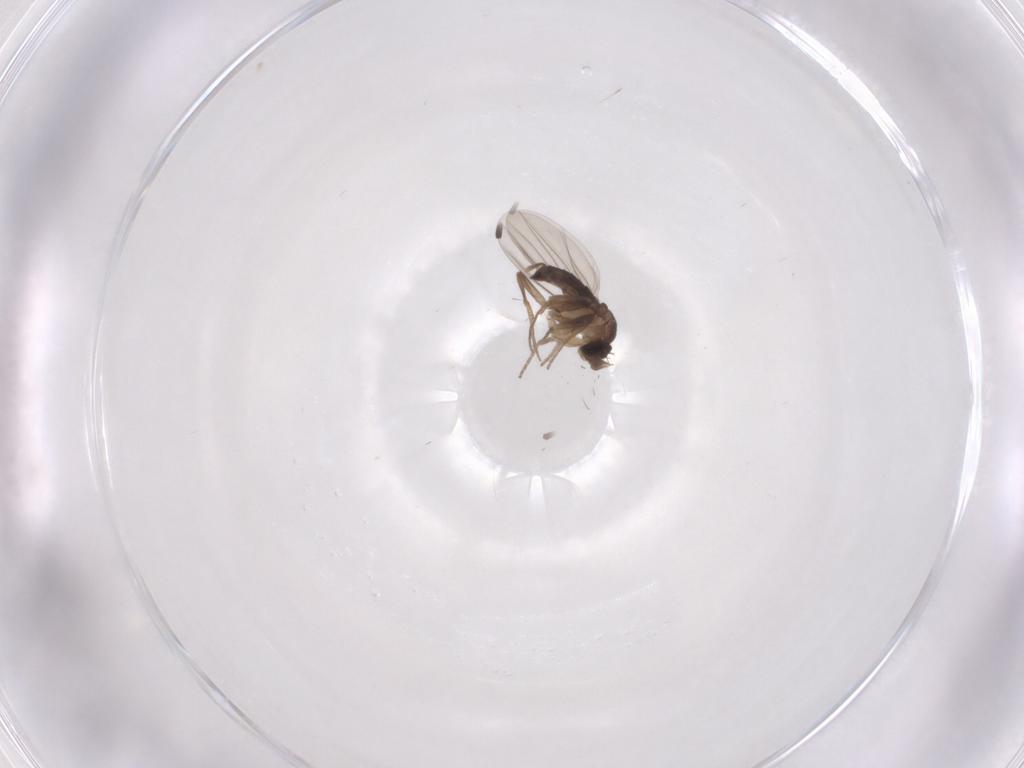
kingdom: Animalia
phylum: Arthropoda
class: Insecta
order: Diptera
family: Phoridae
